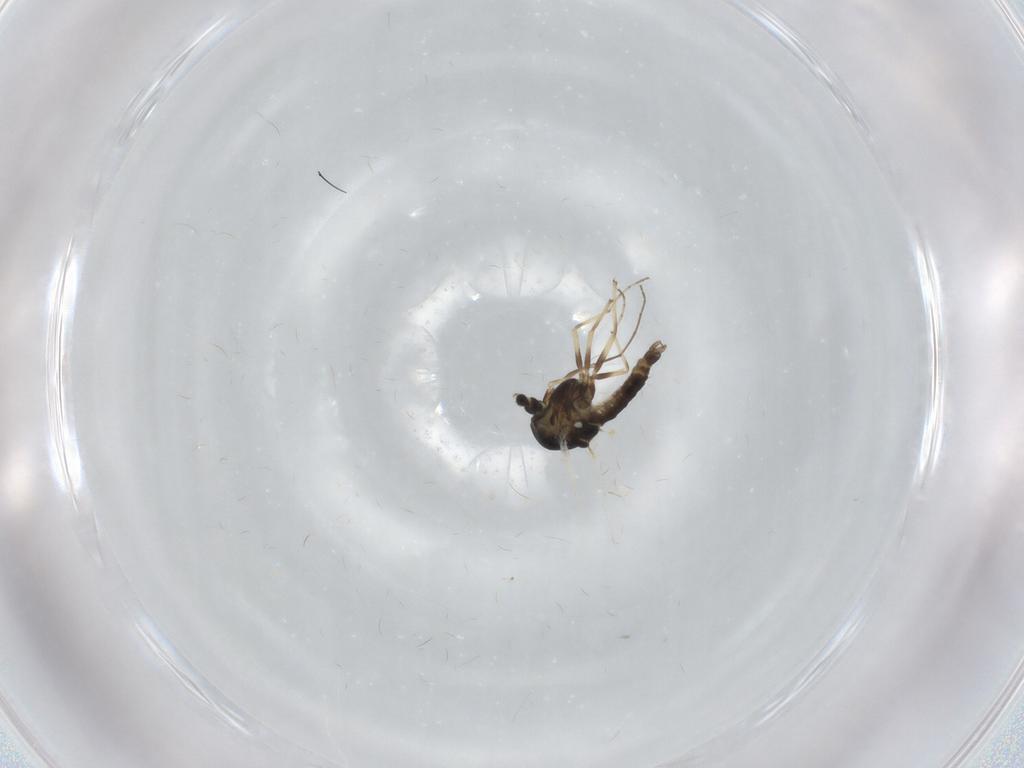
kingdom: Animalia
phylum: Arthropoda
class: Insecta
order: Diptera
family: Chironomidae
